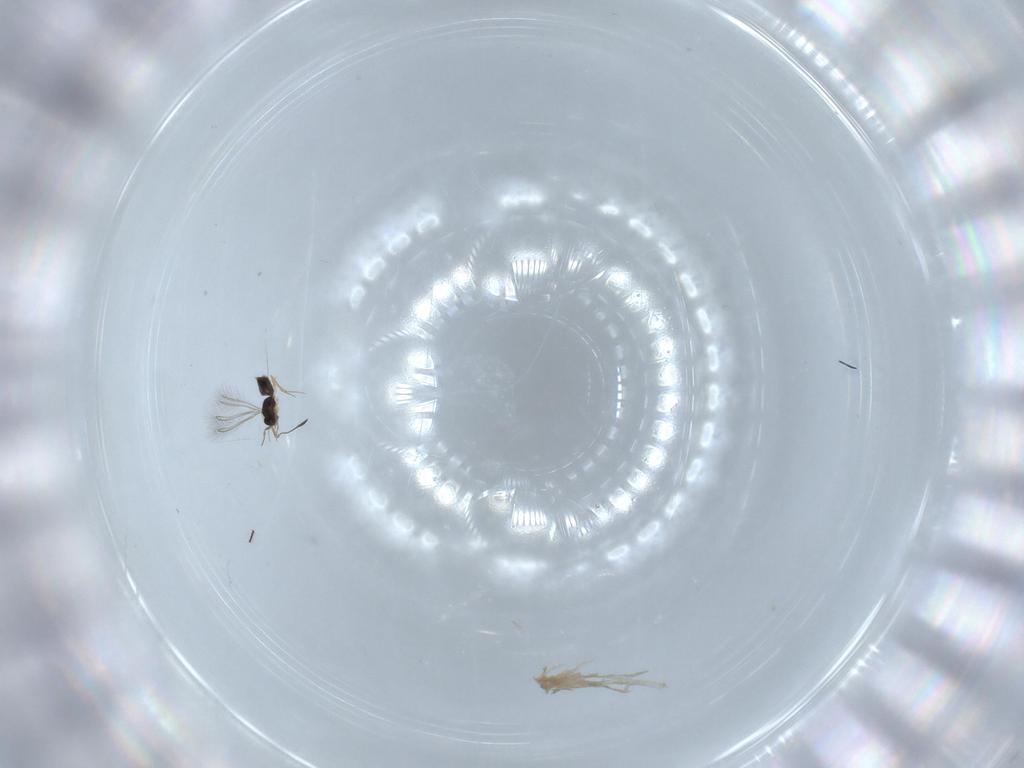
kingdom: Animalia
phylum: Arthropoda
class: Insecta
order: Hymenoptera
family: Mymaridae
